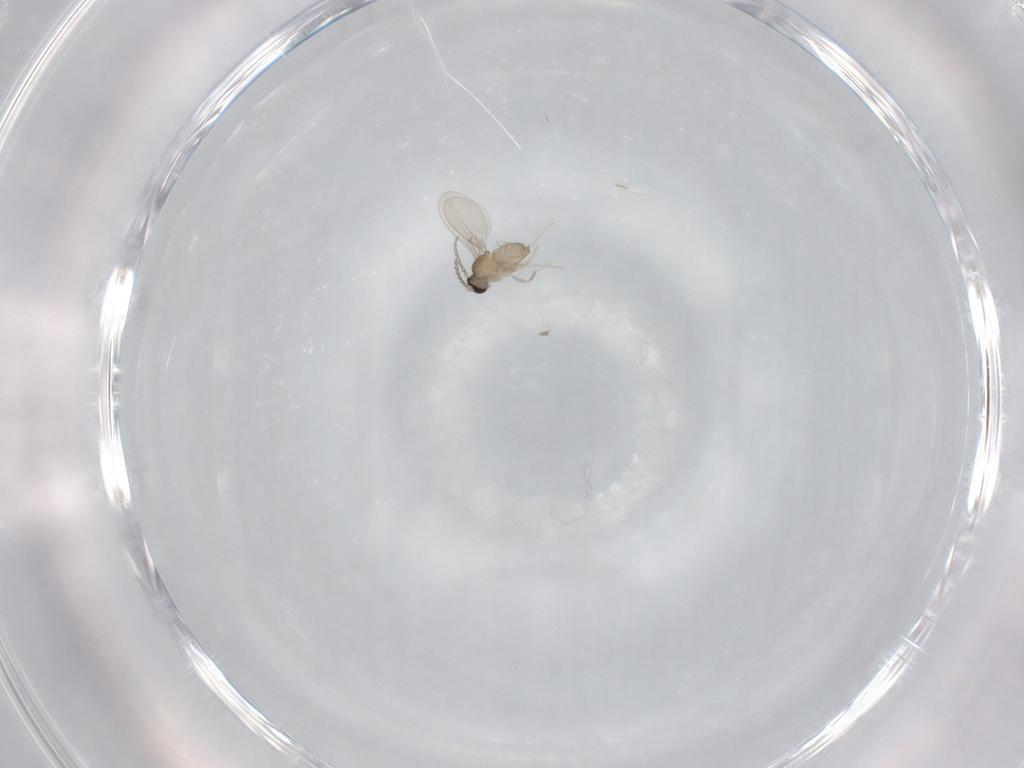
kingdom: Animalia
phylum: Arthropoda
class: Insecta
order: Diptera
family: Cecidomyiidae
